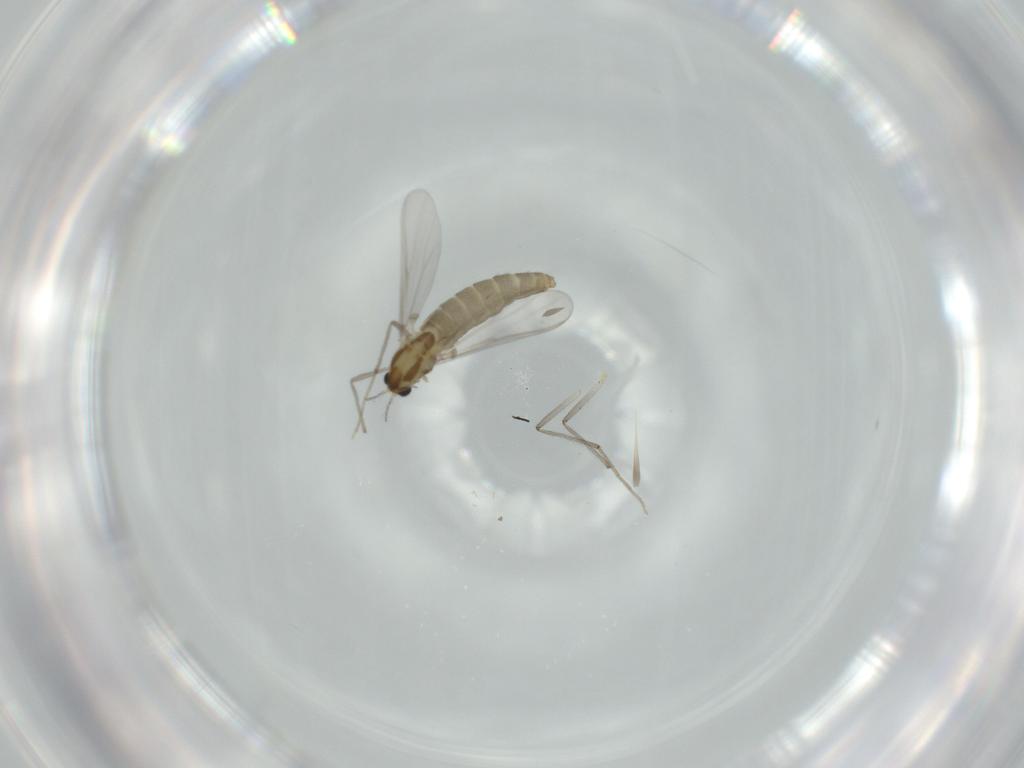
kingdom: Animalia
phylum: Arthropoda
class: Insecta
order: Diptera
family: Chironomidae
